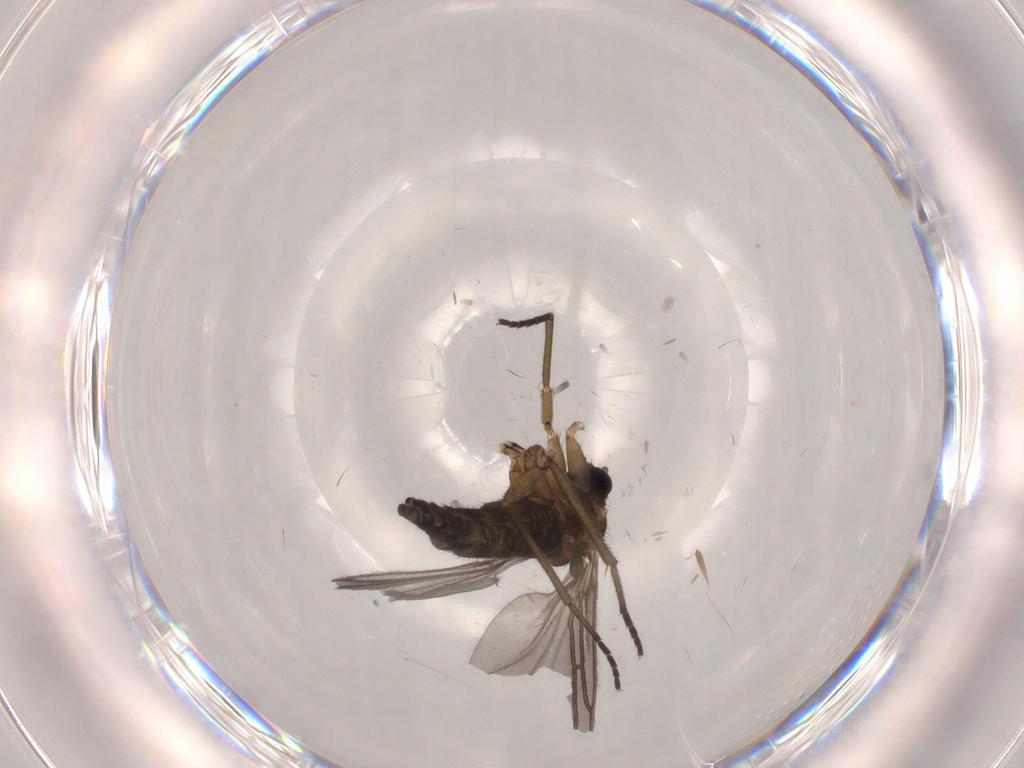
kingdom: Animalia
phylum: Arthropoda
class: Insecta
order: Diptera
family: Sciaridae
